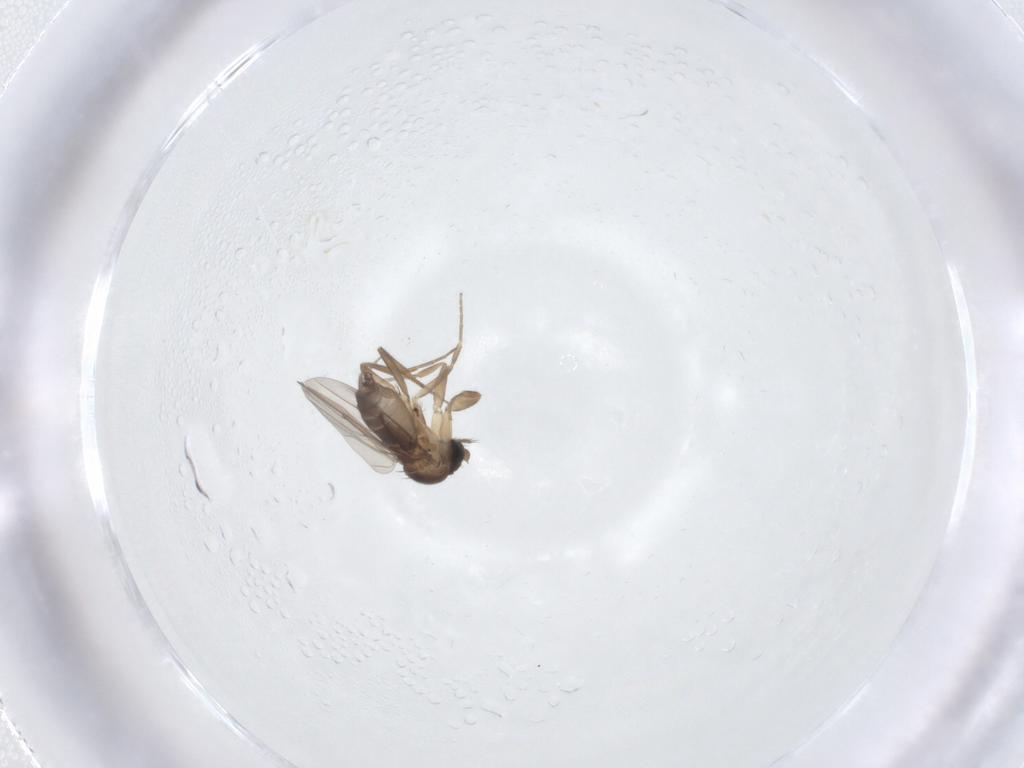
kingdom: Animalia
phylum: Arthropoda
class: Insecta
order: Diptera
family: Phoridae
